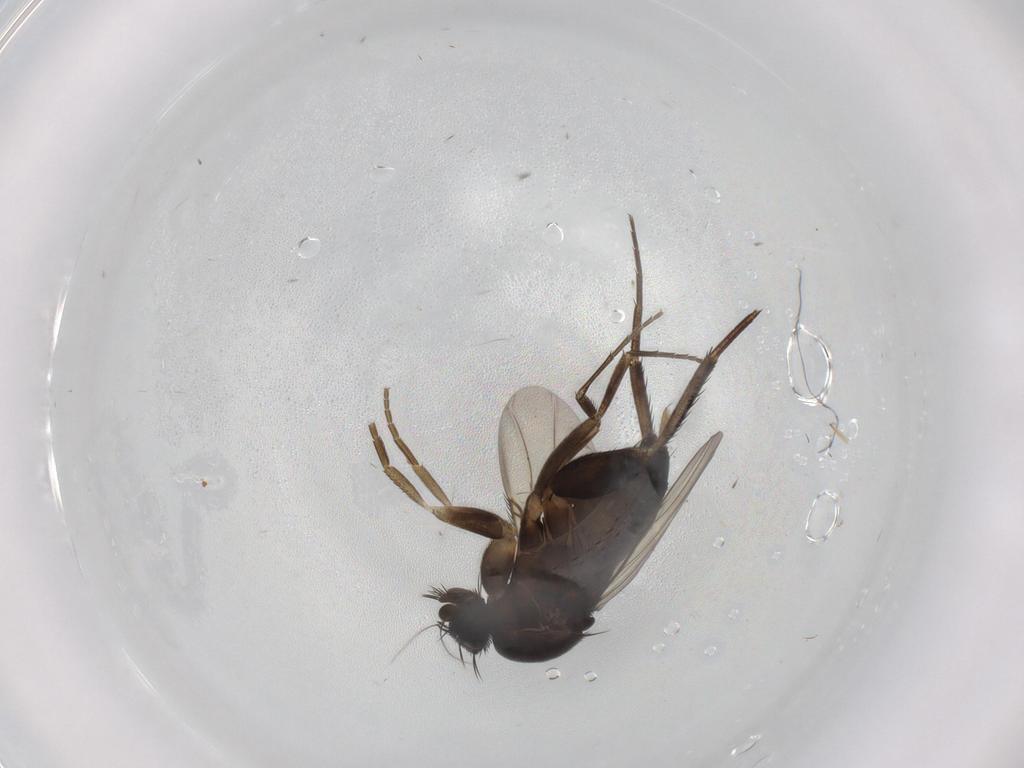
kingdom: Animalia
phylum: Arthropoda
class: Insecta
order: Diptera
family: Phoridae
